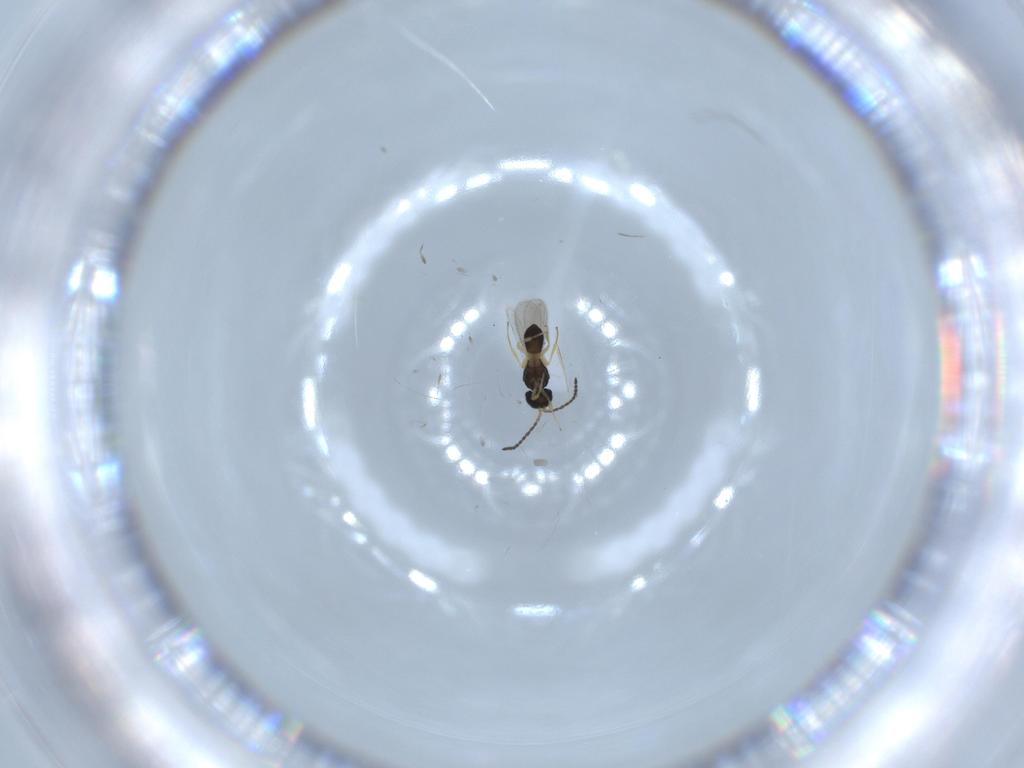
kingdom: Animalia
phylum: Arthropoda
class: Insecta
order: Hymenoptera
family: Scelionidae
